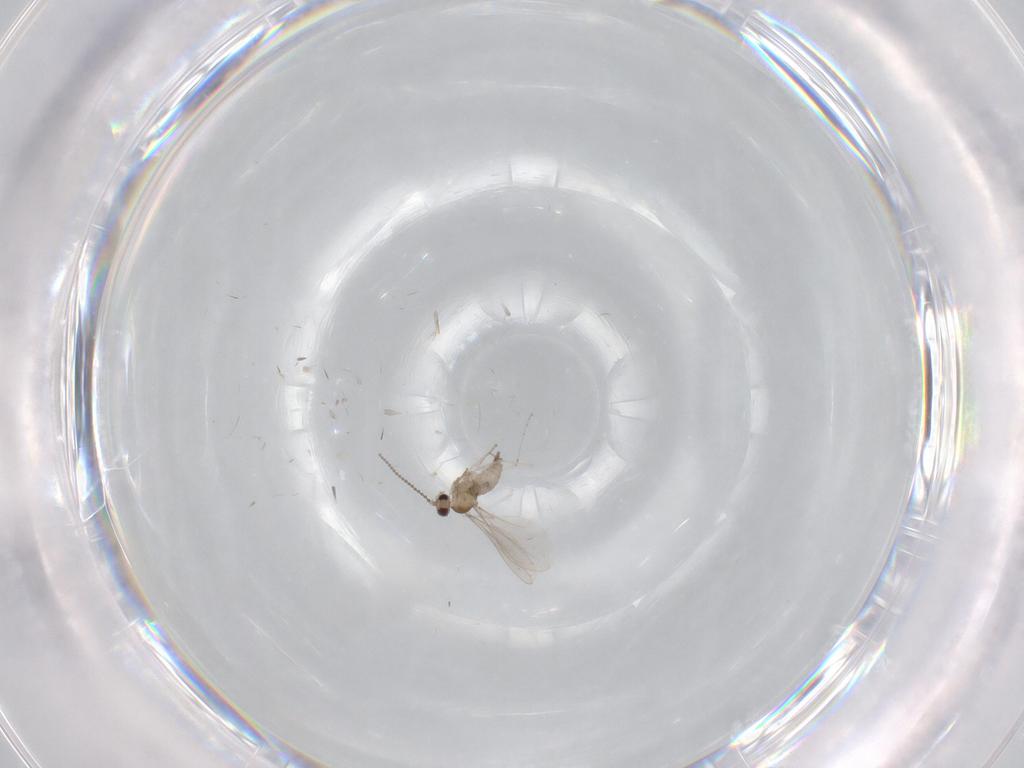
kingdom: Animalia
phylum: Arthropoda
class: Insecta
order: Diptera
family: Cecidomyiidae
